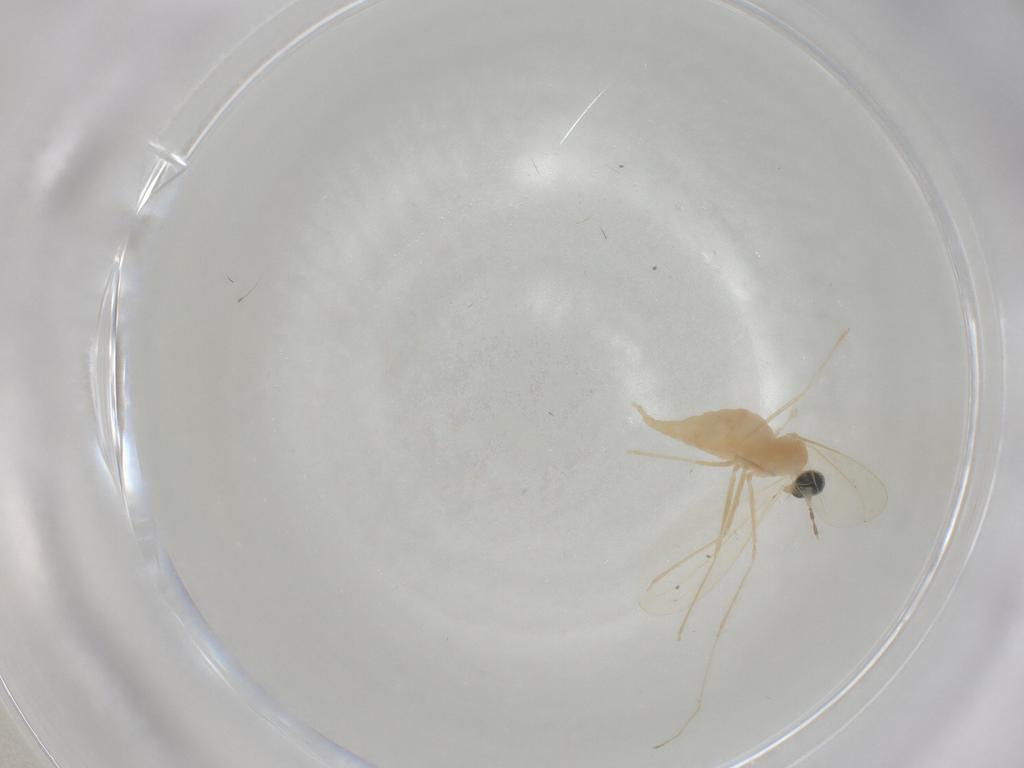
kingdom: Animalia
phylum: Arthropoda
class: Insecta
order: Diptera
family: Cecidomyiidae
